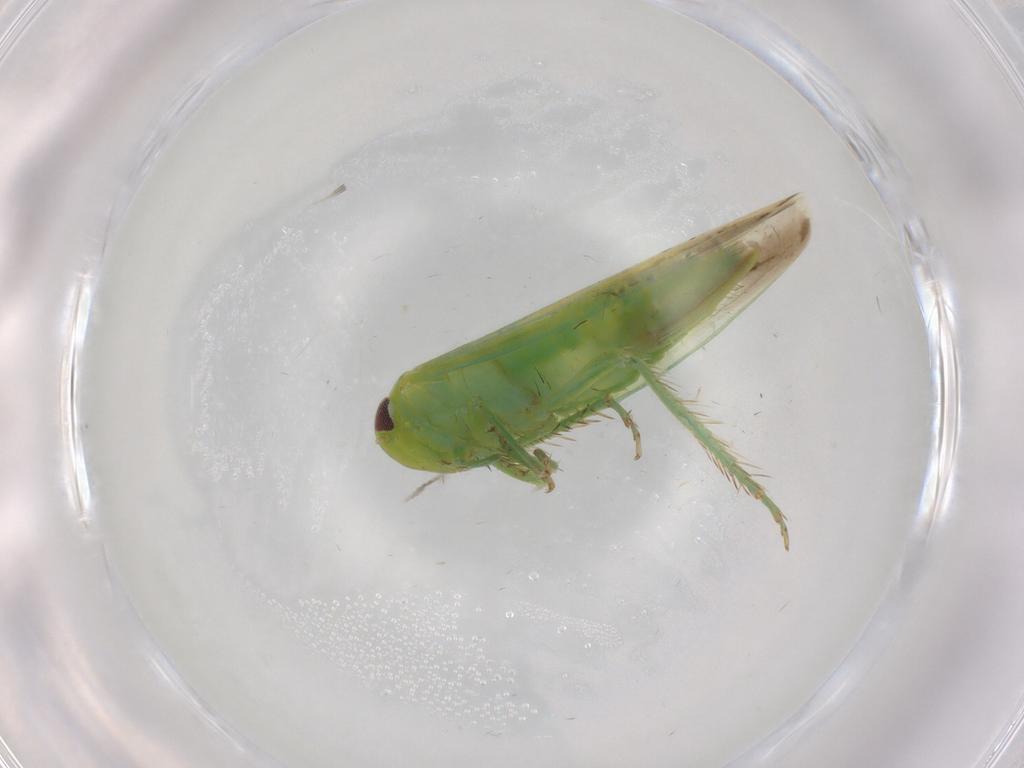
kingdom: Animalia
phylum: Arthropoda
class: Insecta
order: Hemiptera
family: Cicadellidae
